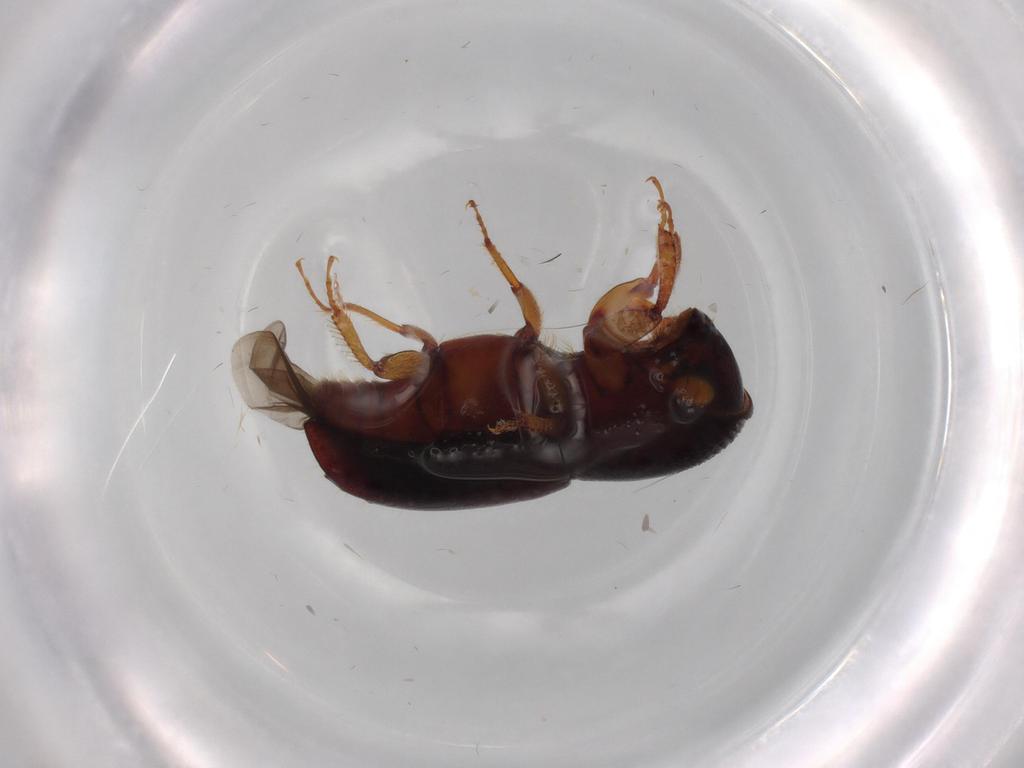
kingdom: Animalia
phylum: Arthropoda
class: Insecta
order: Coleoptera
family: Curculionidae
